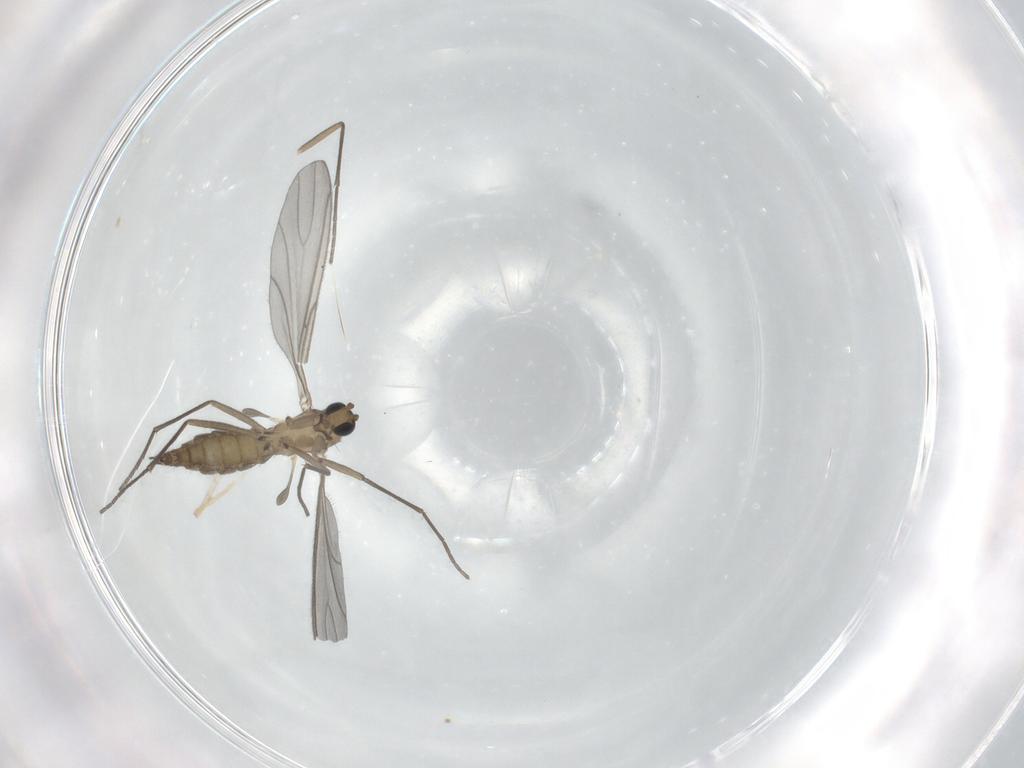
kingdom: Animalia
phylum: Arthropoda
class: Insecta
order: Diptera
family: Sciaridae
